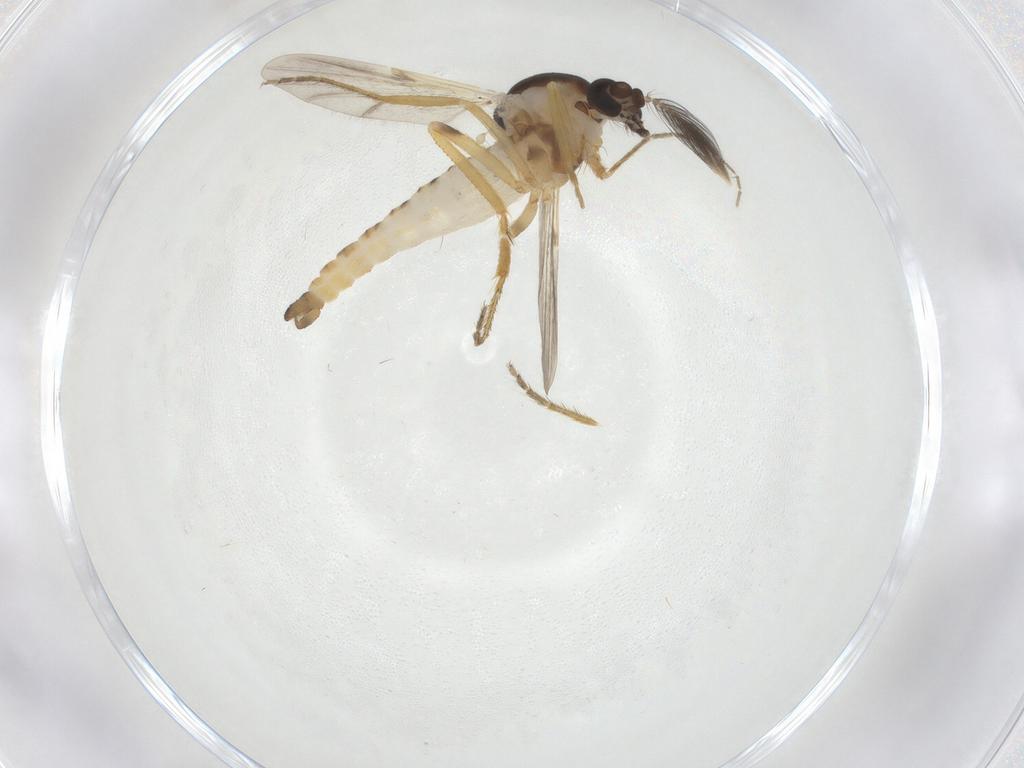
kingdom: Animalia
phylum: Arthropoda
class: Insecta
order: Diptera
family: Ceratopogonidae
